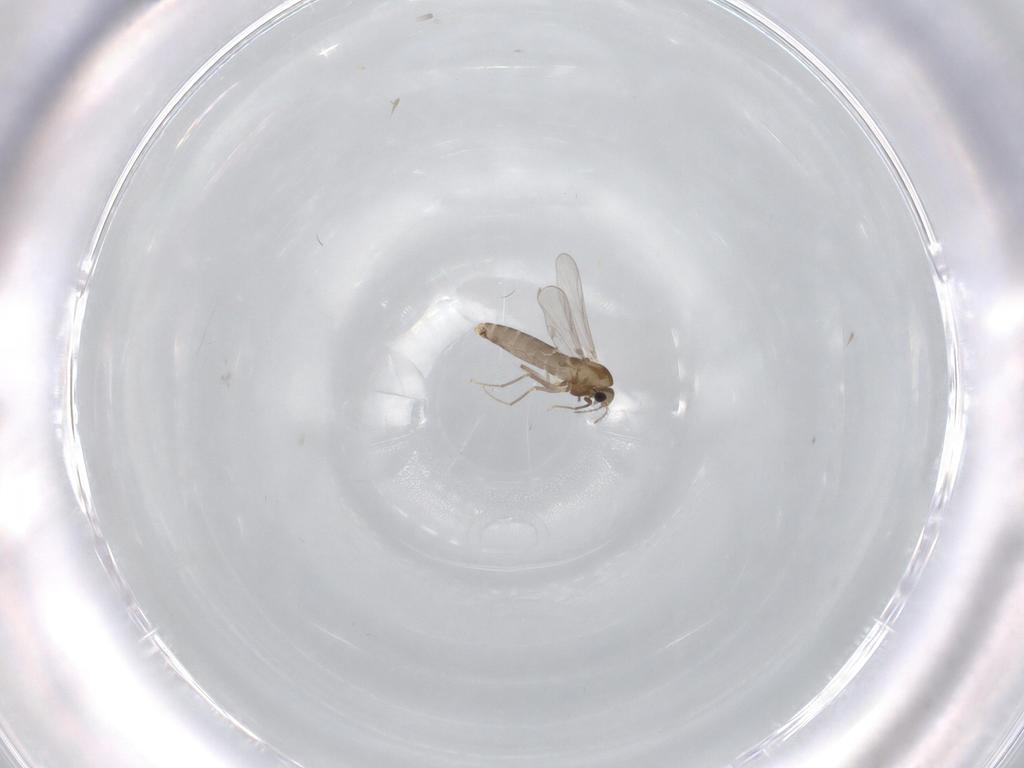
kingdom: Animalia
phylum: Arthropoda
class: Insecta
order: Diptera
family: Chironomidae
